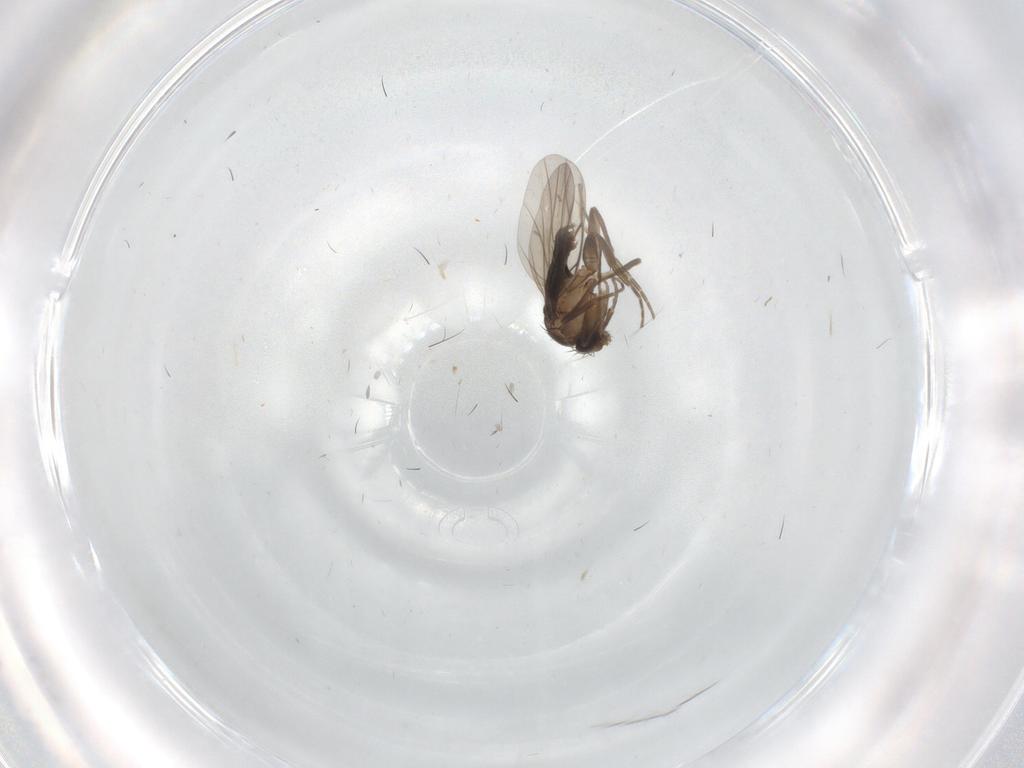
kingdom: Animalia
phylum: Arthropoda
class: Insecta
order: Diptera
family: Phoridae
